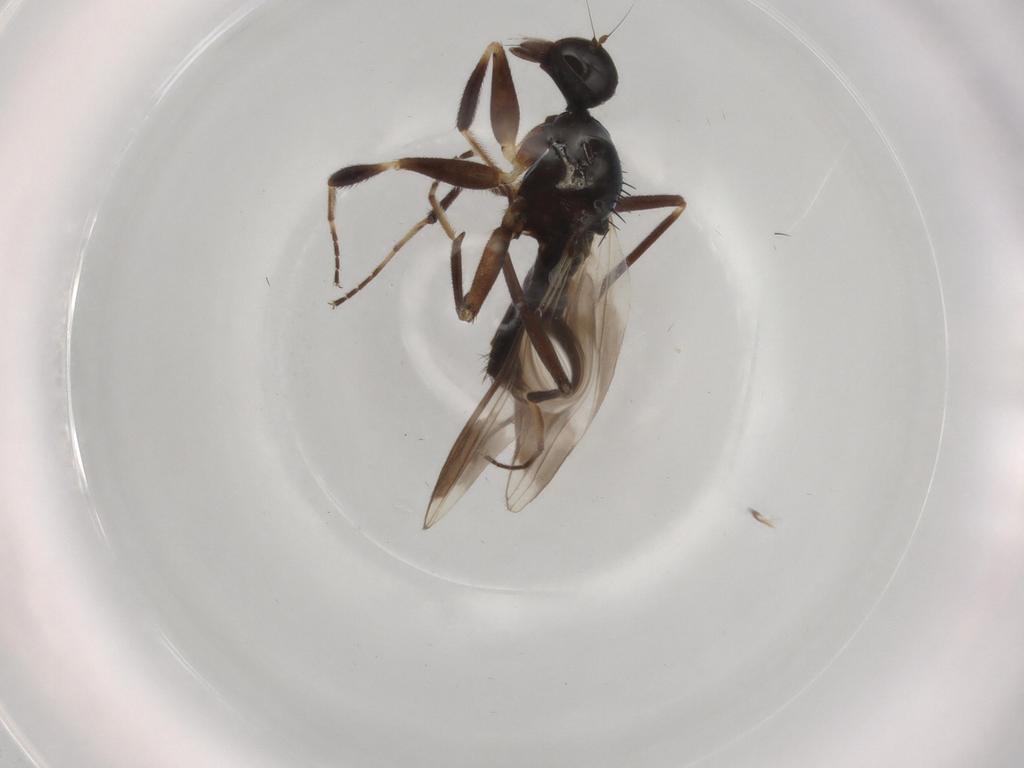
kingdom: Animalia
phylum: Arthropoda
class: Insecta
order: Diptera
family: Hybotidae
